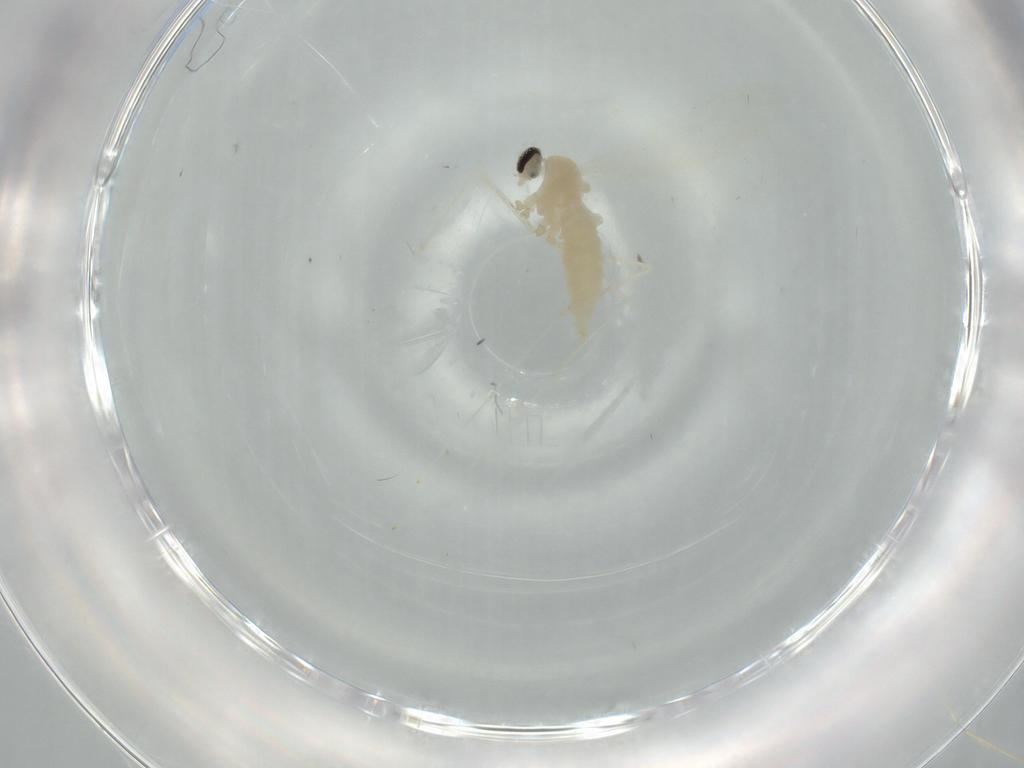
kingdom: Animalia
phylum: Arthropoda
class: Insecta
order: Diptera
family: Cecidomyiidae
